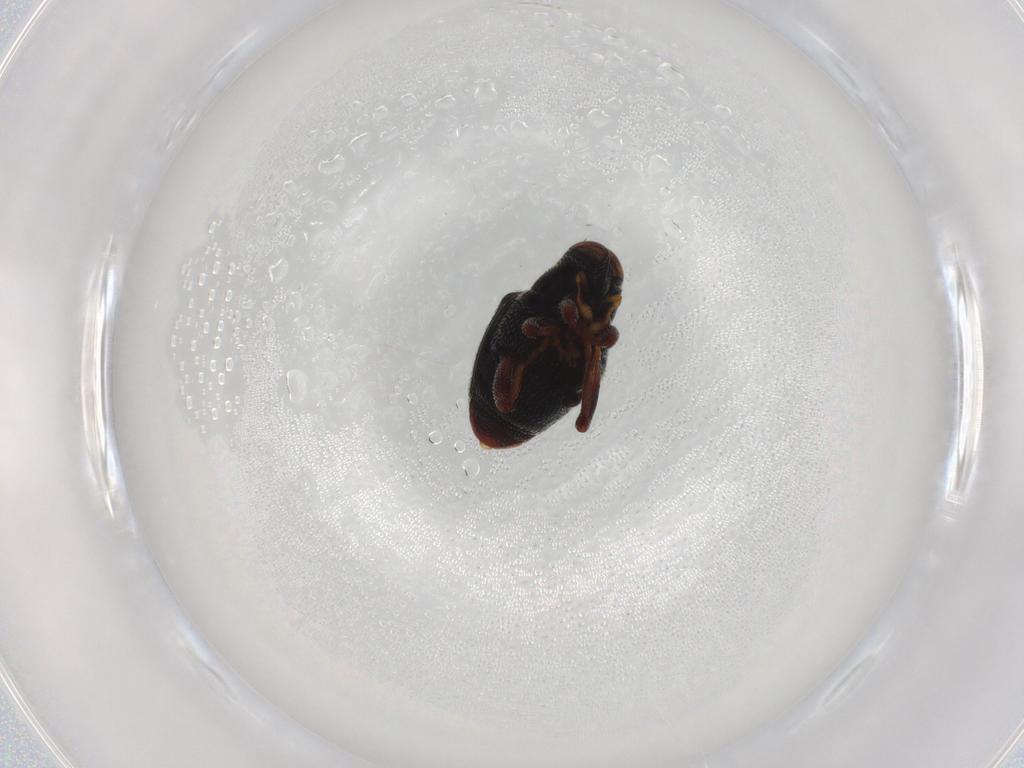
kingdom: Animalia
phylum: Arthropoda
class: Insecta
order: Coleoptera
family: Curculionidae
